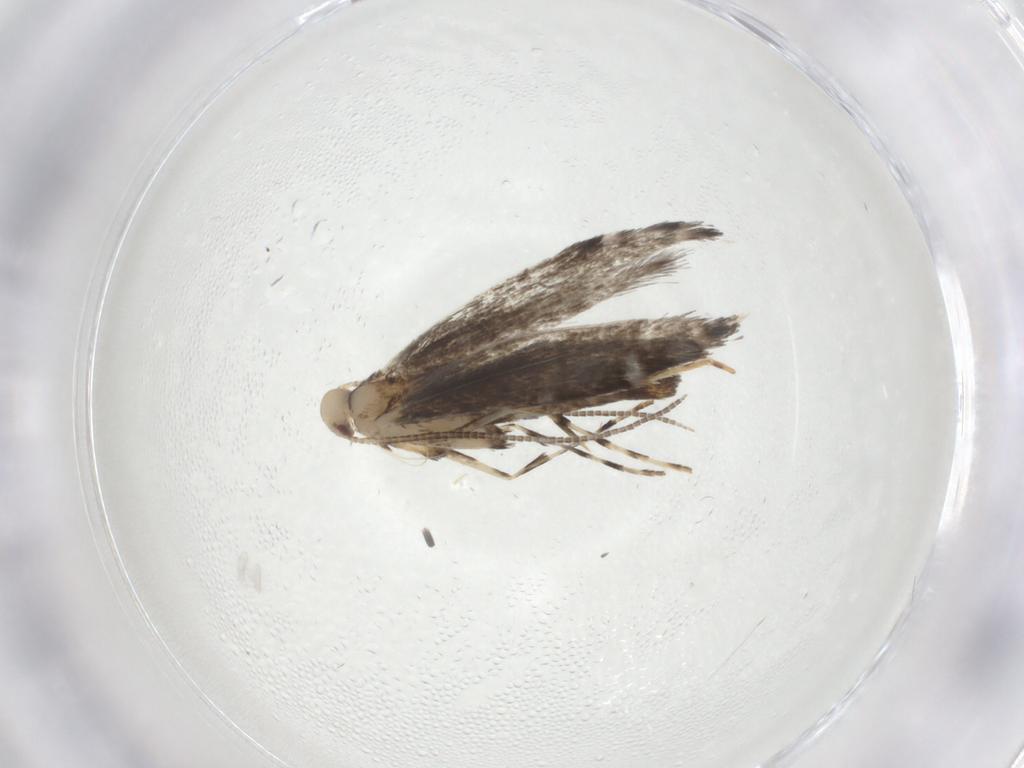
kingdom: Animalia
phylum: Arthropoda
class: Insecta
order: Lepidoptera
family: Gracillariidae
